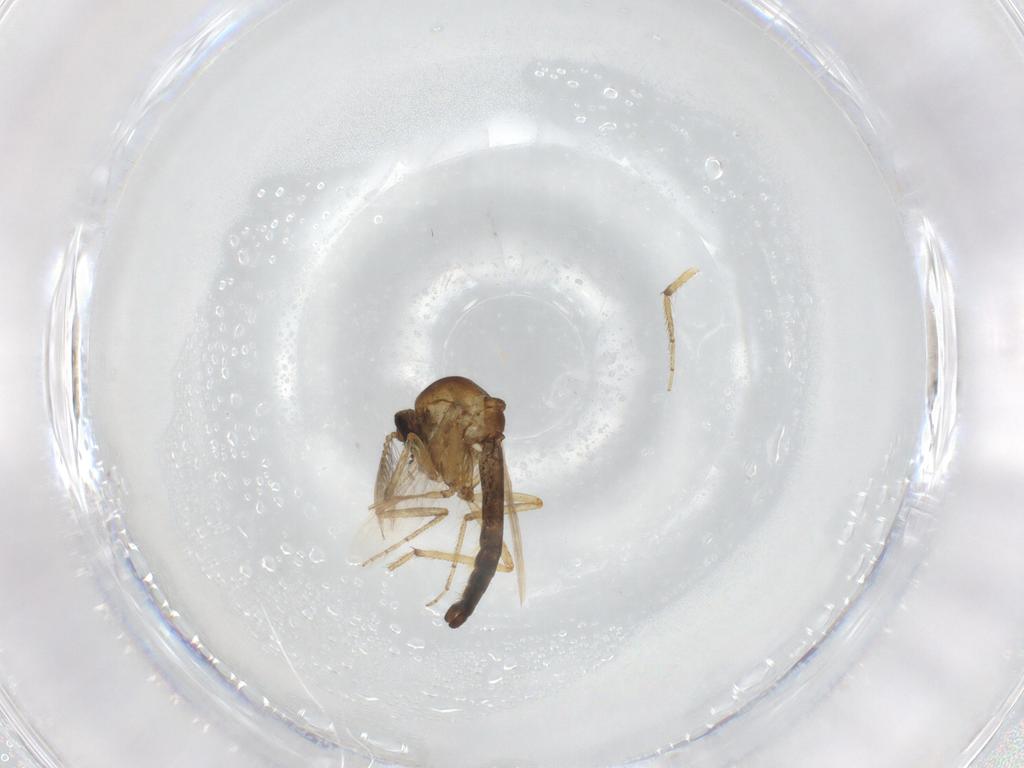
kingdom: Animalia
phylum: Arthropoda
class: Insecta
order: Diptera
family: Ceratopogonidae
